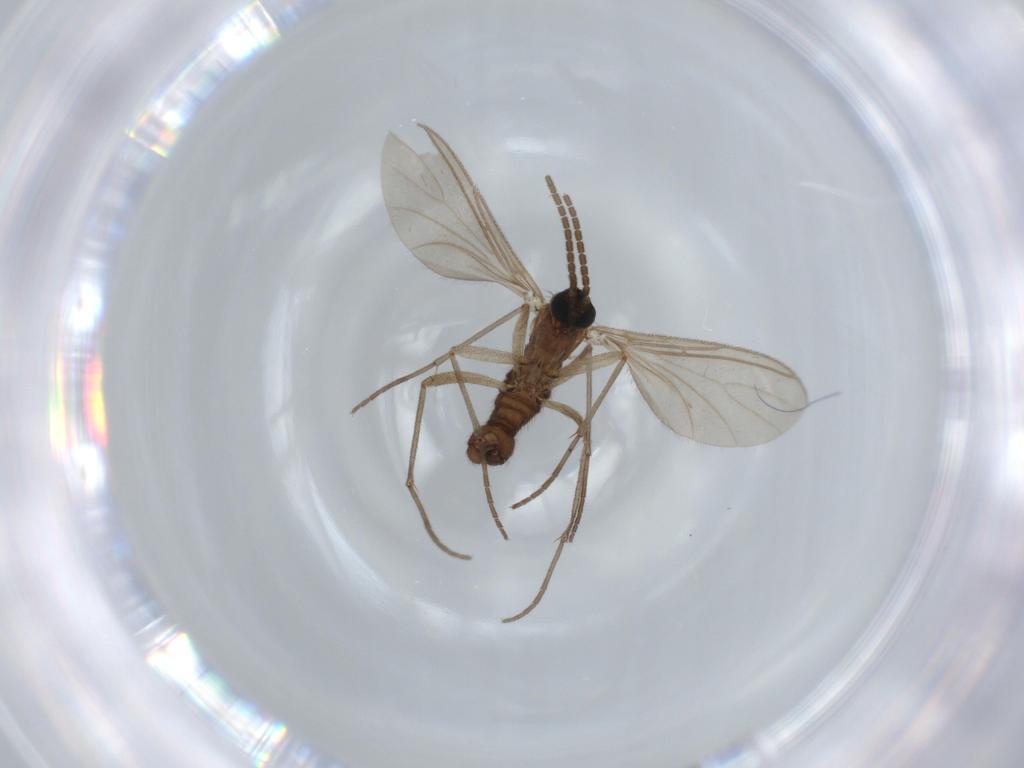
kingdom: Animalia
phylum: Arthropoda
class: Insecta
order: Diptera
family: Sciaridae
